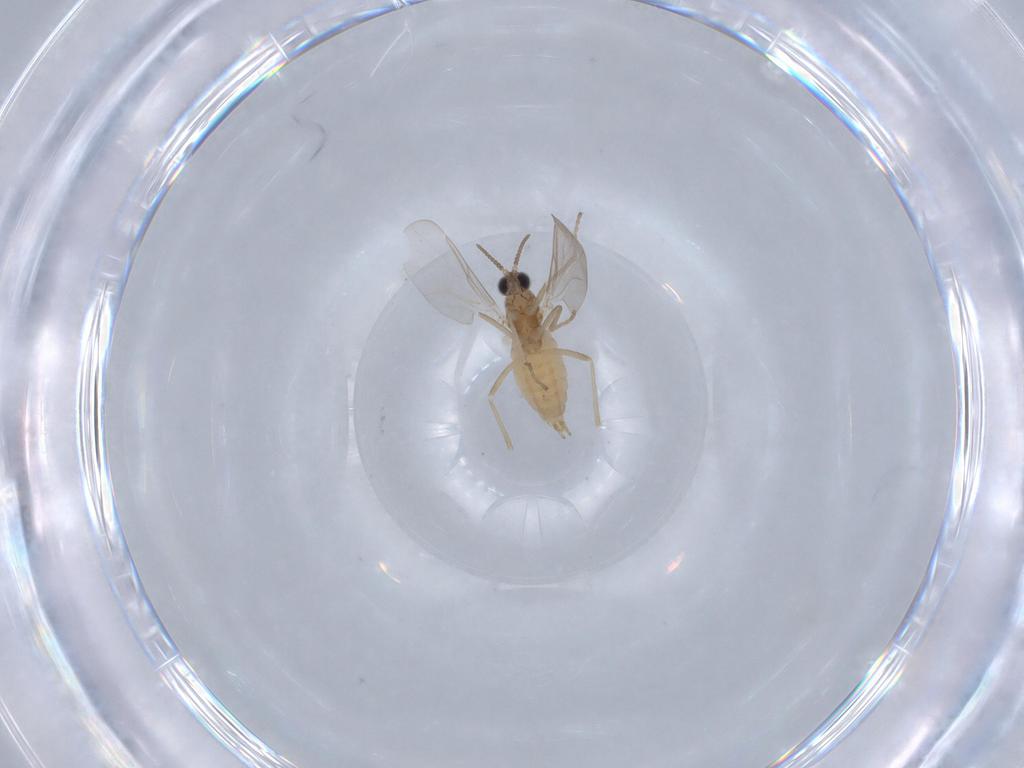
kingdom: Animalia
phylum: Arthropoda
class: Insecta
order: Diptera
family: Cecidomyiidae
